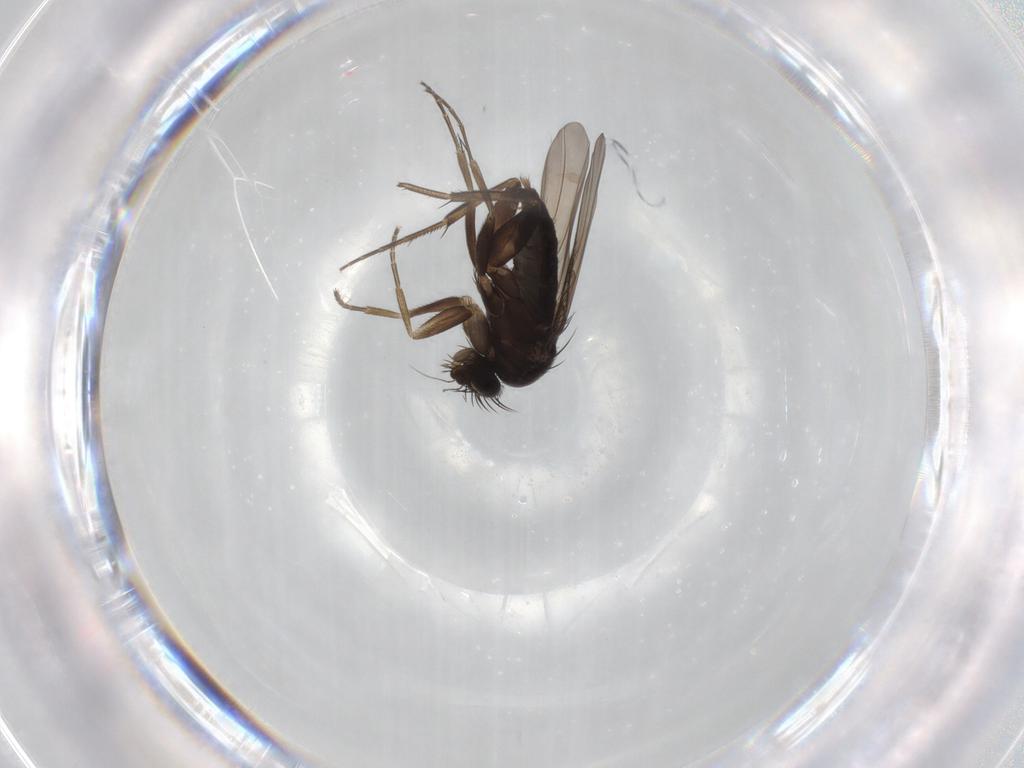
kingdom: Animalia
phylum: Arthropoda
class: Insecta
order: Diptera
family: Phoridae
